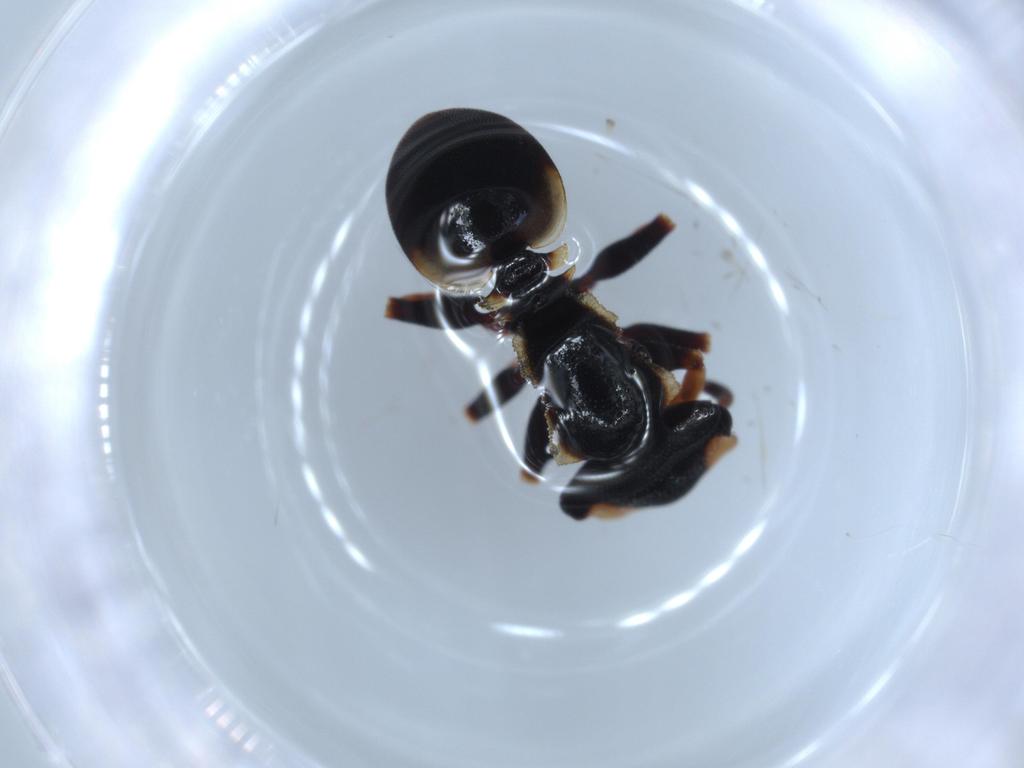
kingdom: Animalia
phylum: Arthropoda
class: Insecta
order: Hymenoptera
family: Formicidae
